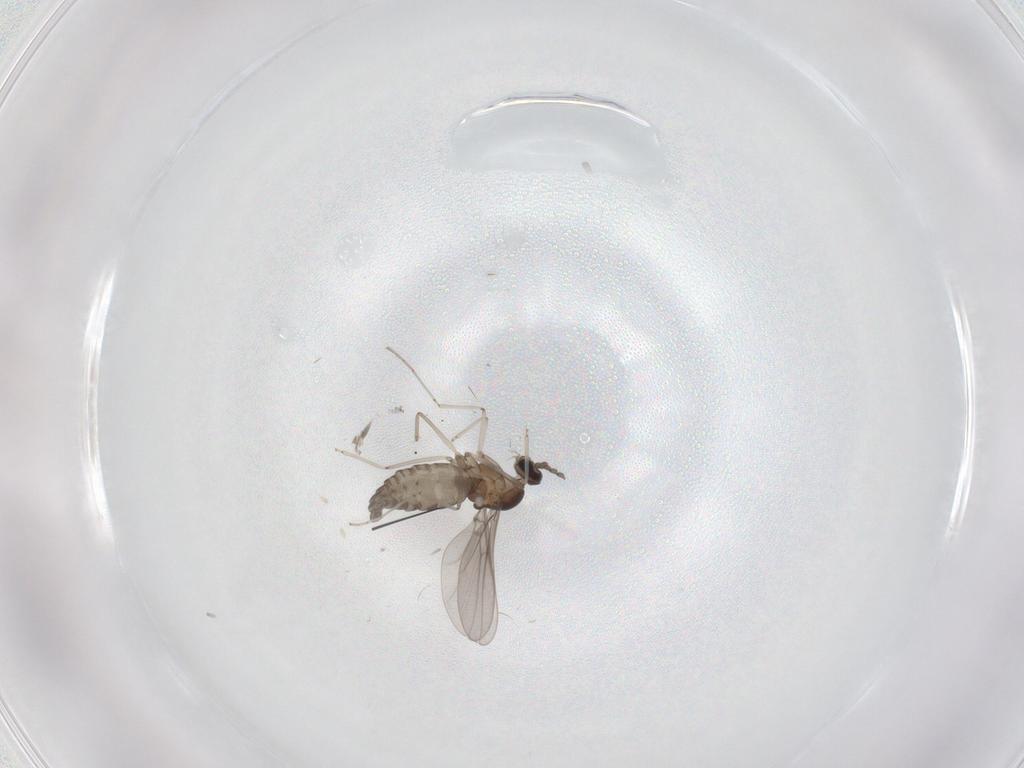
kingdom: Animalia
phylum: Arthropoda
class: Insecta
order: Diptera
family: Cecidomyiidae
